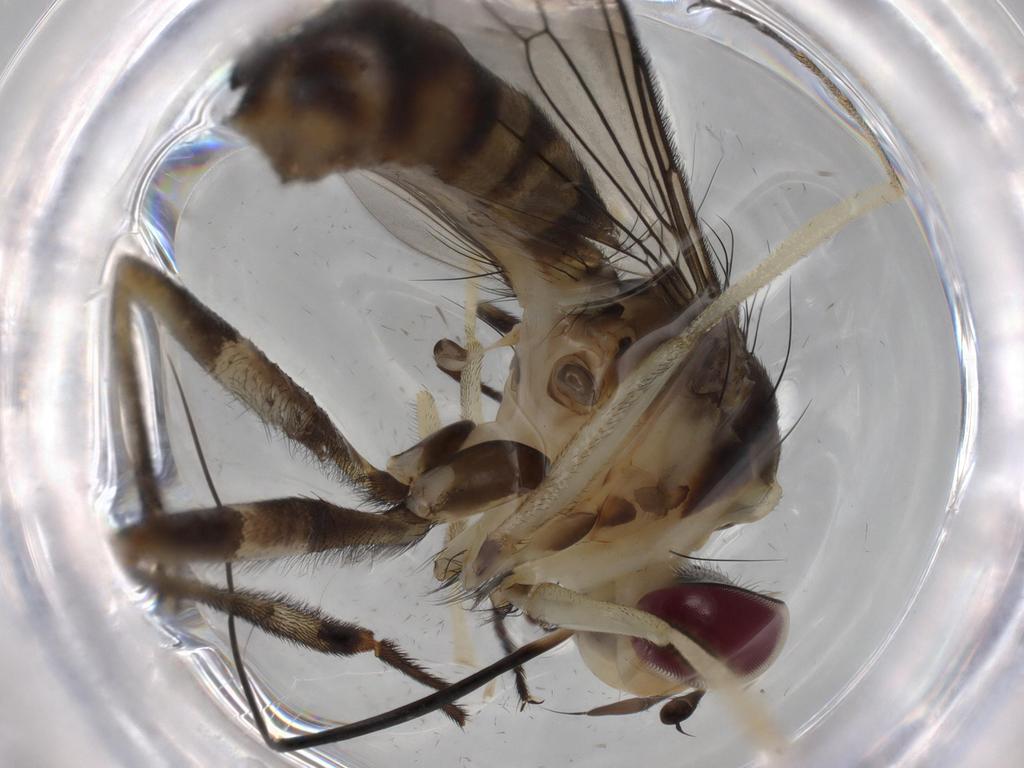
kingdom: Animalia
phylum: Arthropoda
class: Insecta
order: Diptera
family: Conopidae
